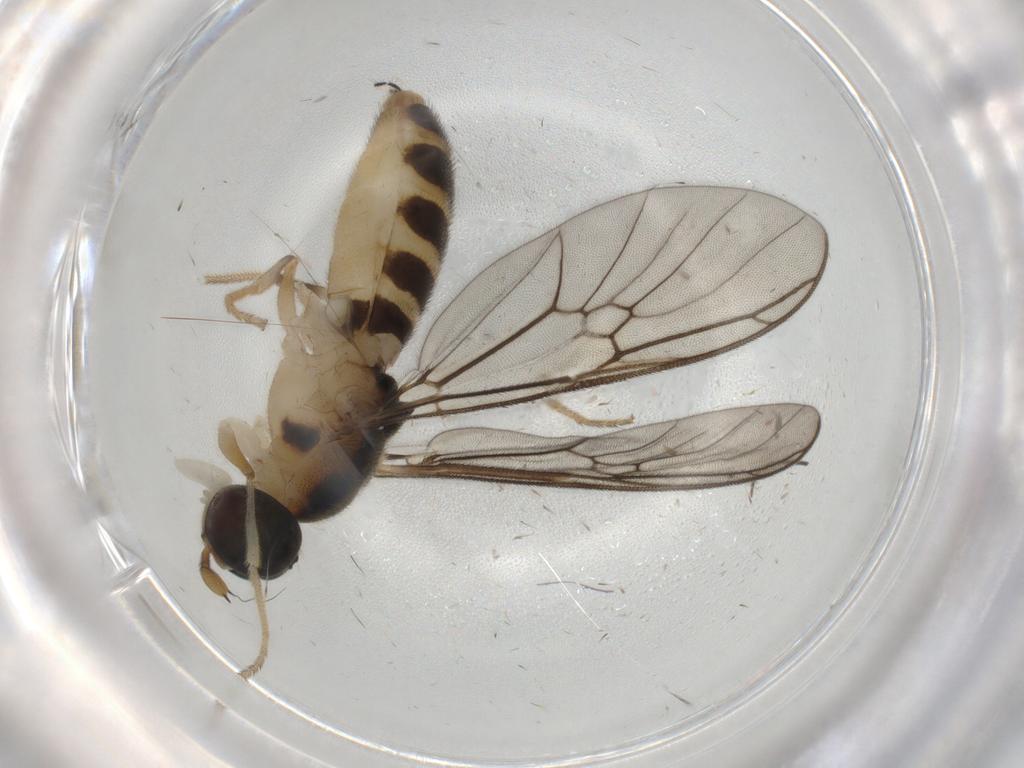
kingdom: Animalia
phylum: Arthropoda
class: Insecta
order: Diptera
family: Phoridae
